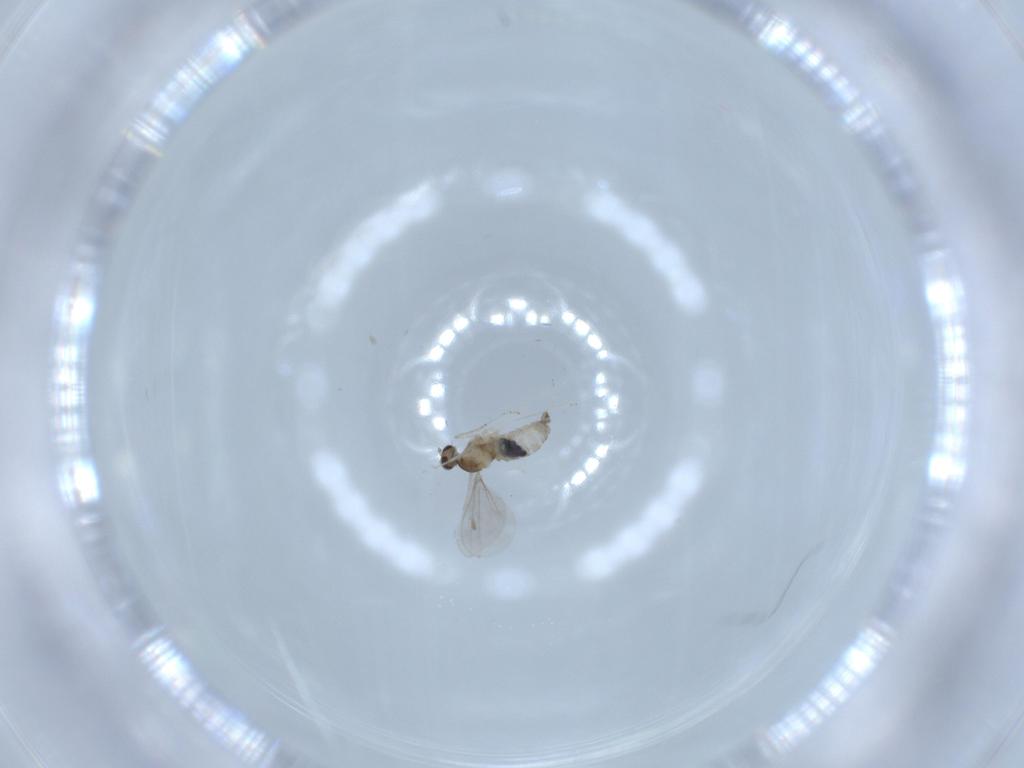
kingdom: Animalia
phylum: Arthropoda
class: Insecta
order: Diptera
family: Cecidomyiidae
